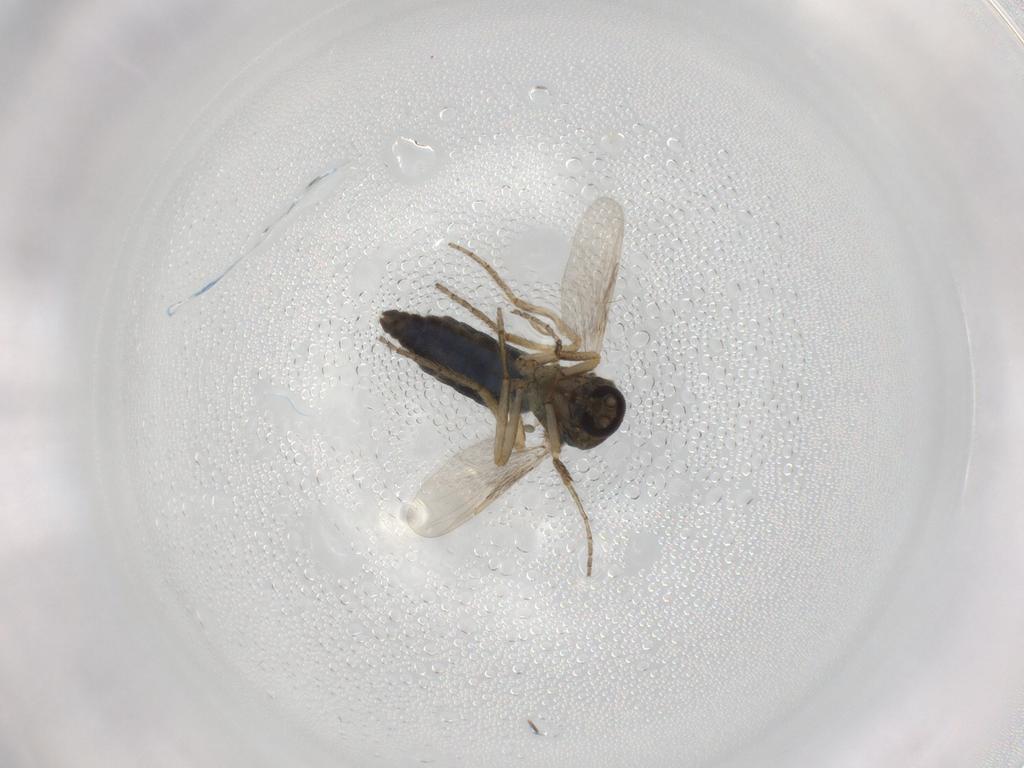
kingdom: Animalia
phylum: Arthropoda
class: Insecta
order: Diptera
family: Ceratopogonidae
